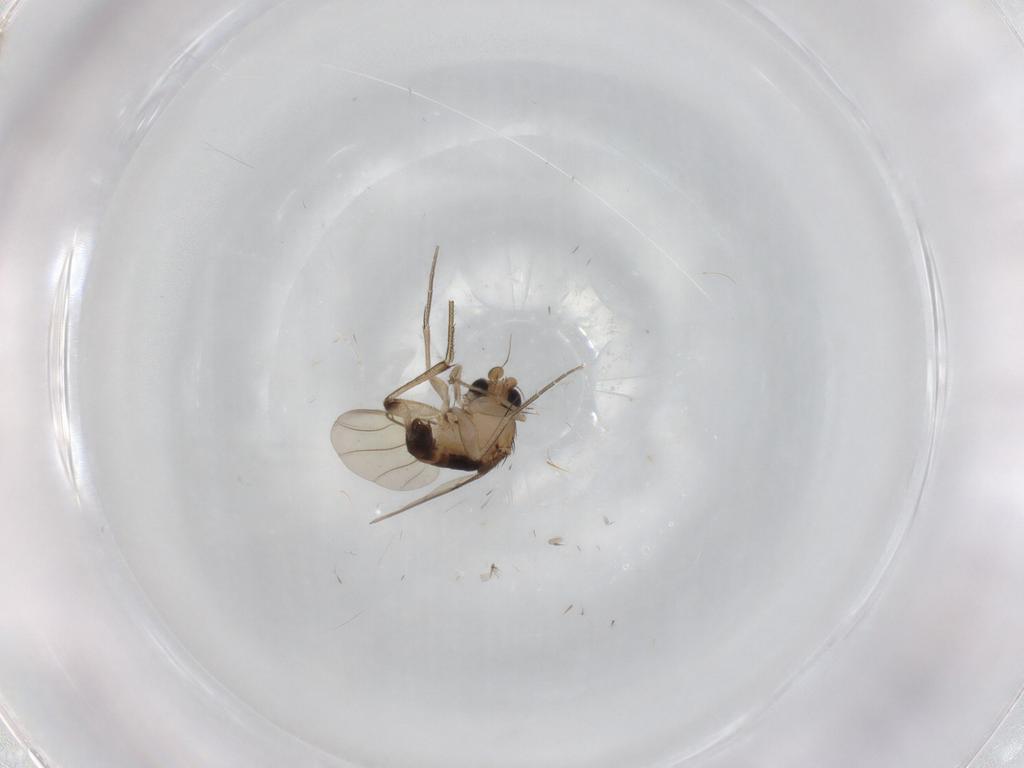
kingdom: Animalia
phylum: Arthropoda
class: Insecta
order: Diptera
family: Phoridae
